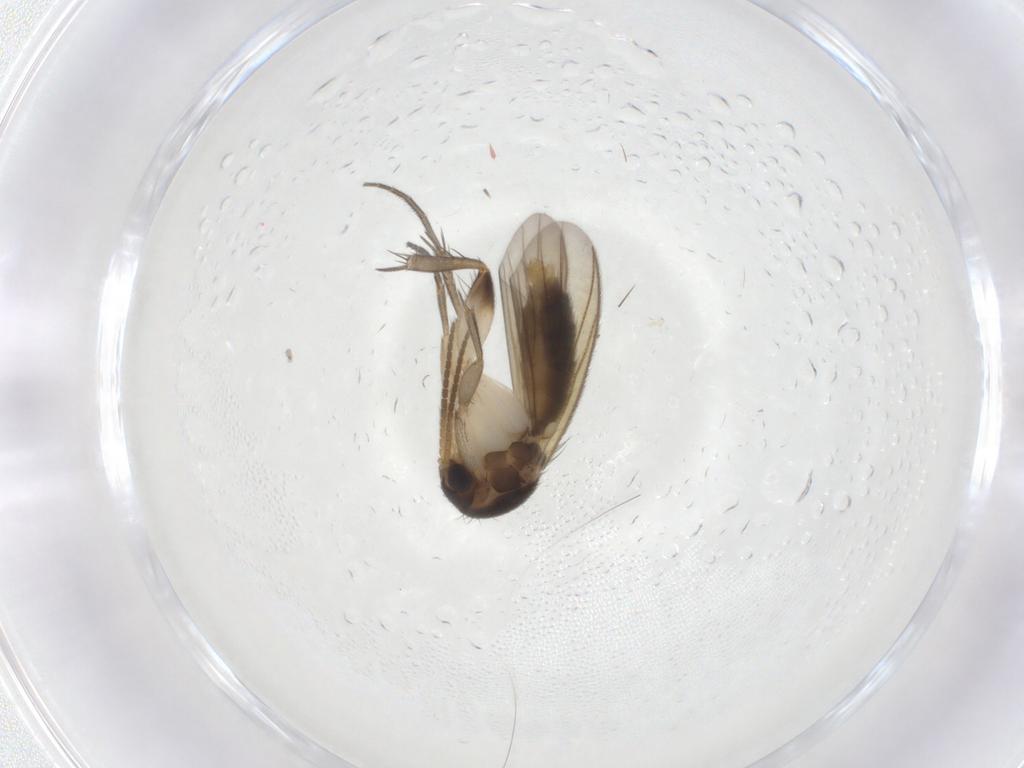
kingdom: Animalia
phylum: Arthropoda
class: Insecta
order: Diptera
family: Mycetophilidae
